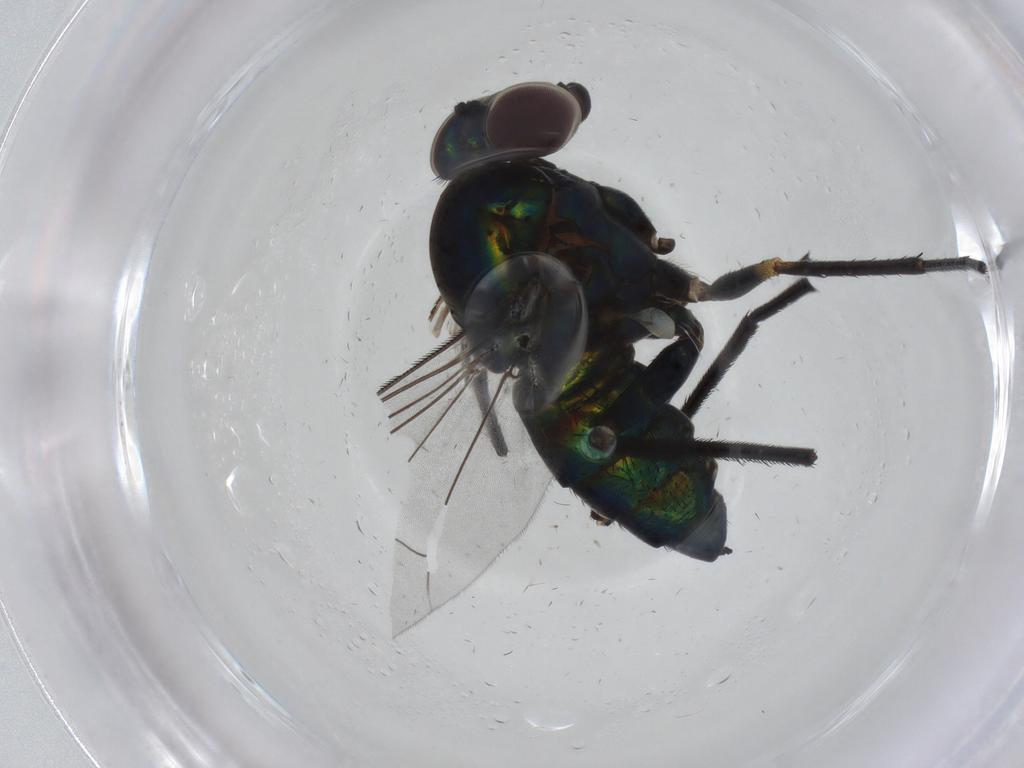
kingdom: Animalia
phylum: Arthropoda
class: Insecta
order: Diptera
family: Dolichopodidae
